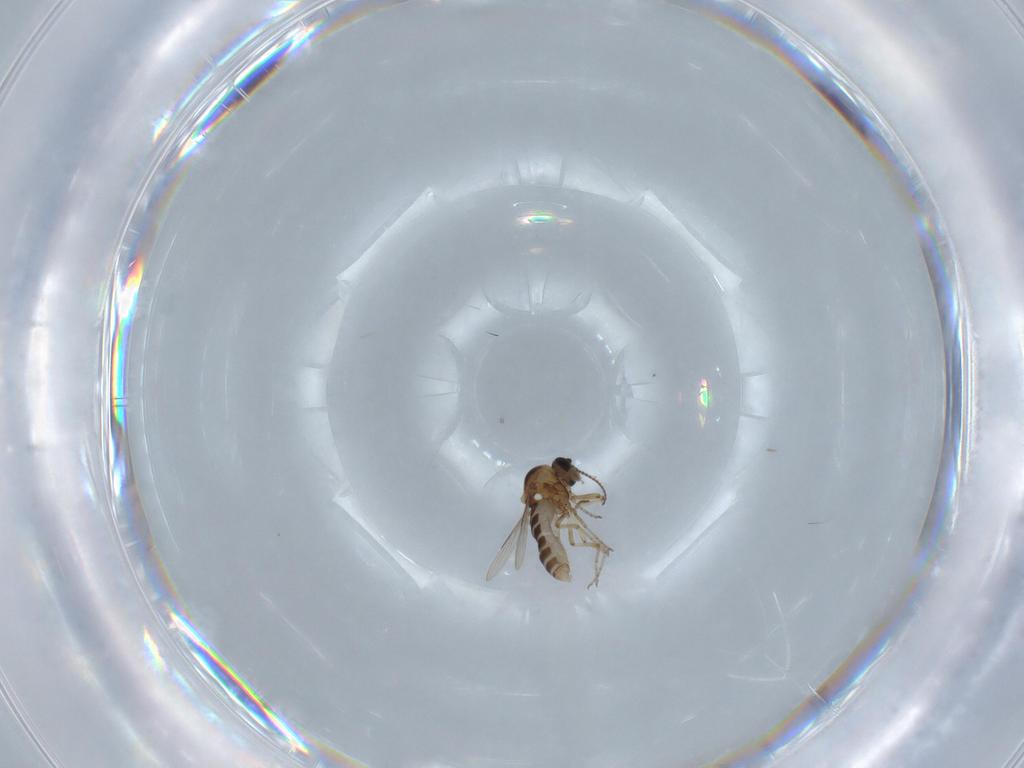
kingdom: Animalia
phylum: Arthropoda
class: Insecta
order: Diptera
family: Ceratopogonidae
